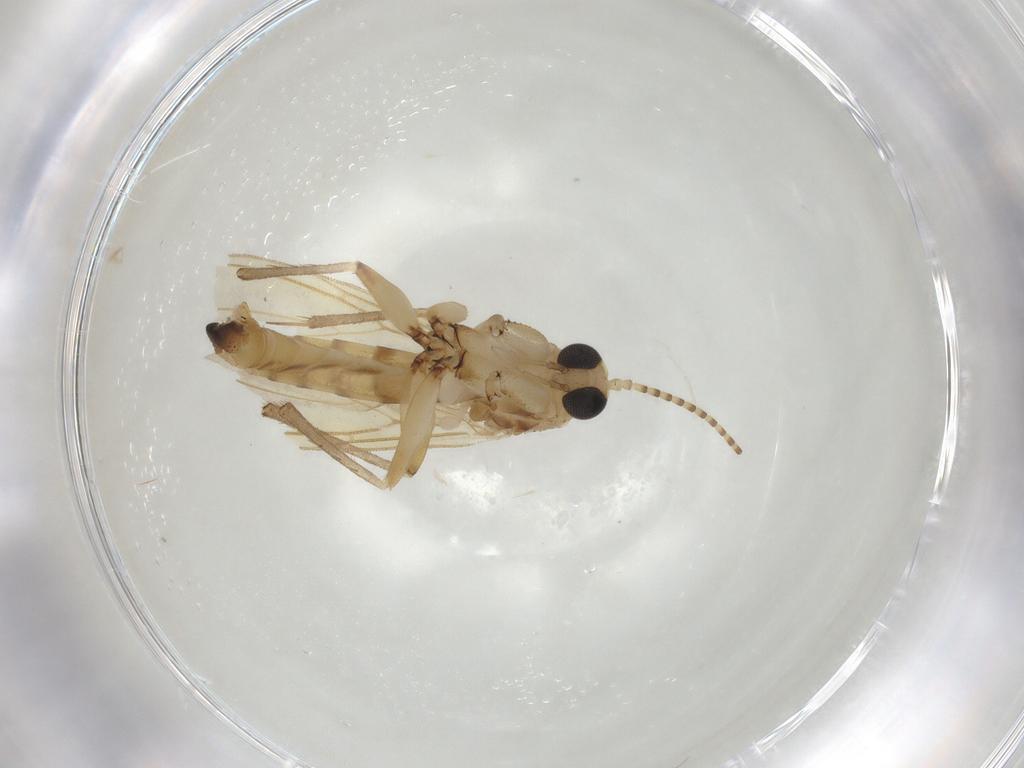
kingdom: Animalia
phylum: Arthropoda
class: Insecta
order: Diptera
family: Mycetophilidae
